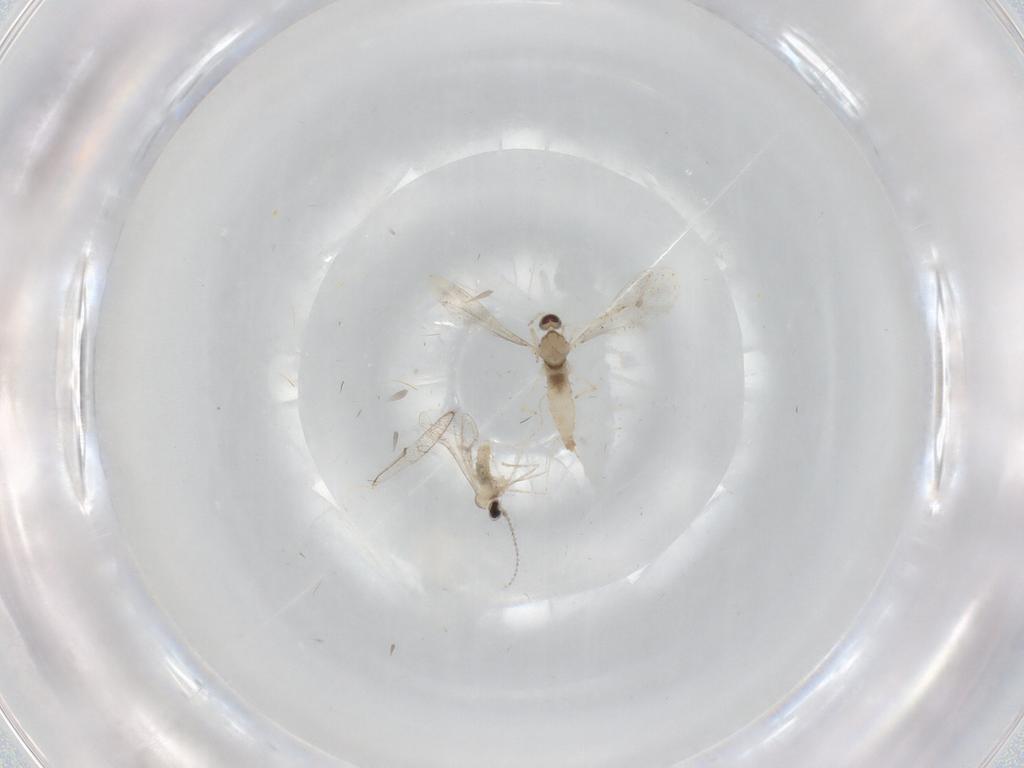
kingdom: Animalia
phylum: Arthropoda
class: Insecta
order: Diptera
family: Cecidomyiidae
